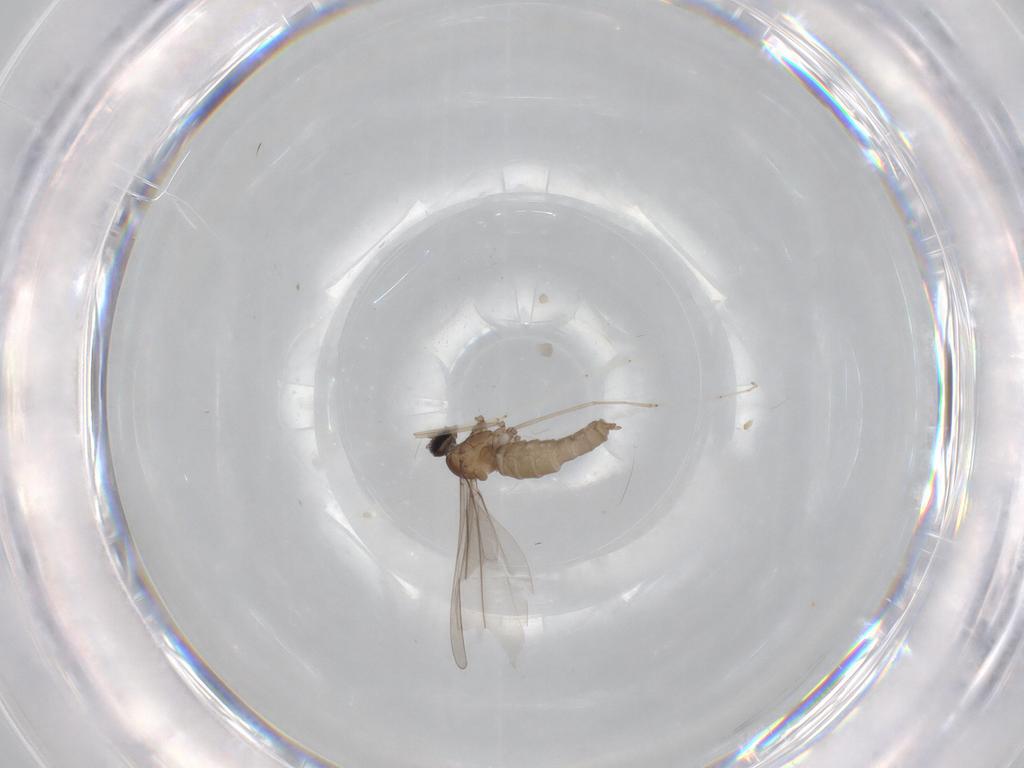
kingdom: Animalia
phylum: Arthropoda
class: Insecta
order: Diptera
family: Psychodidae
